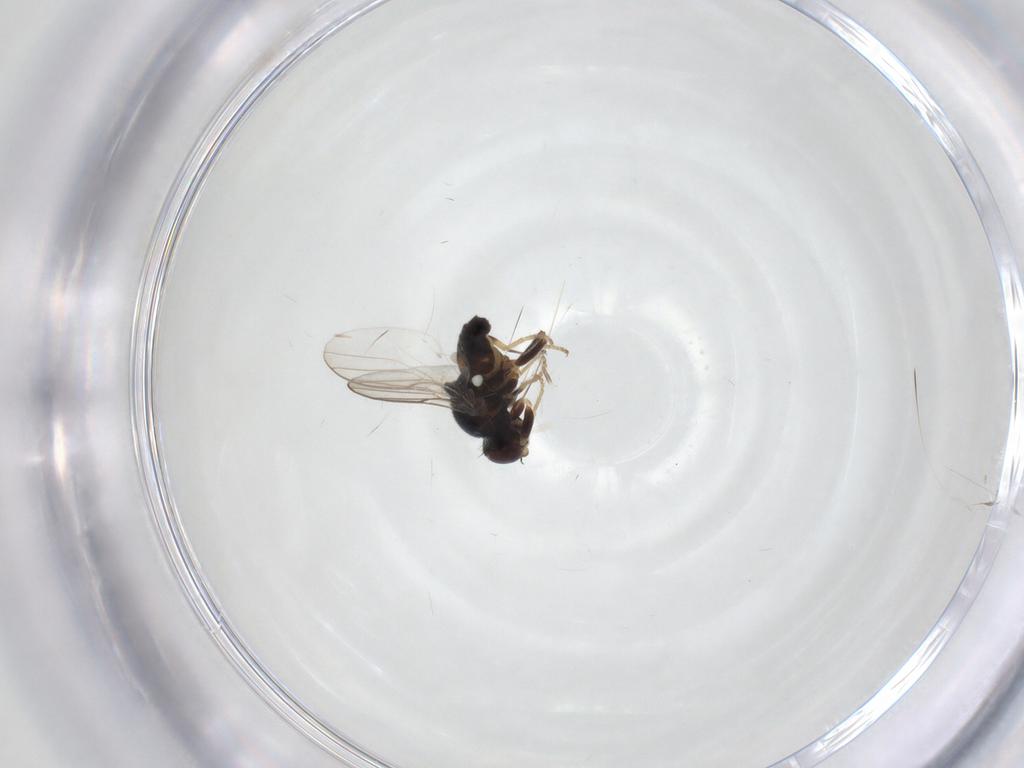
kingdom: Animalia
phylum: Arthropoda
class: Insecta
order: Diptera
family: Chloropidae
